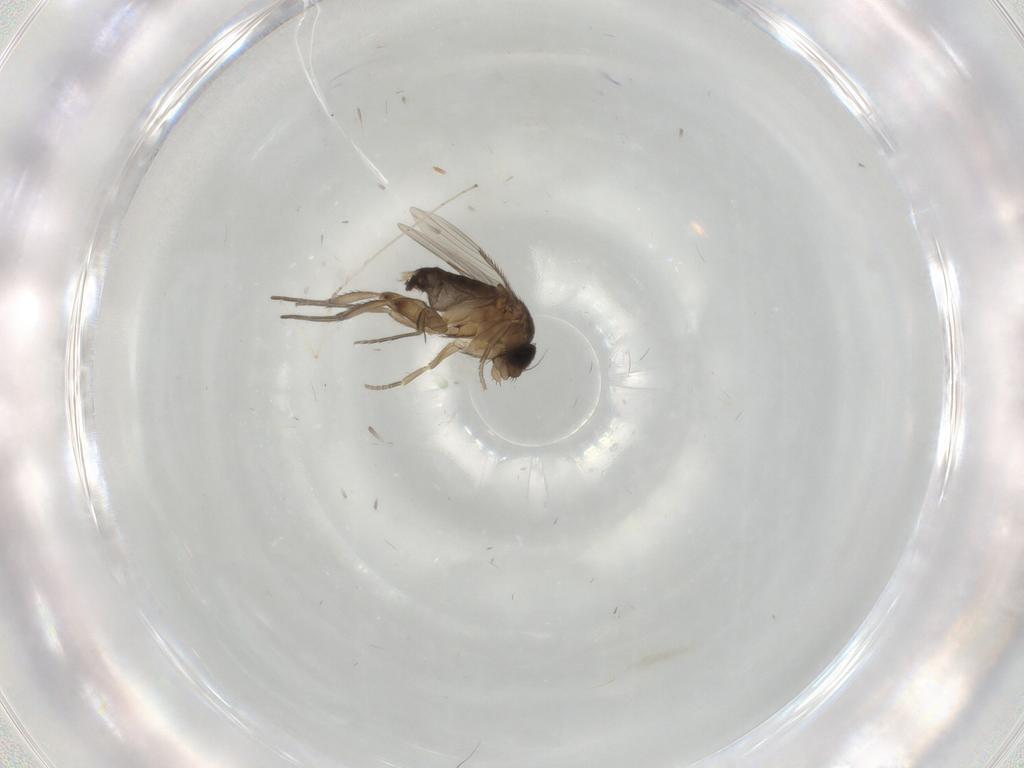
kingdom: Animalia
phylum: Arthropoda
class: Insecta
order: Diptera
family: Phoridae
